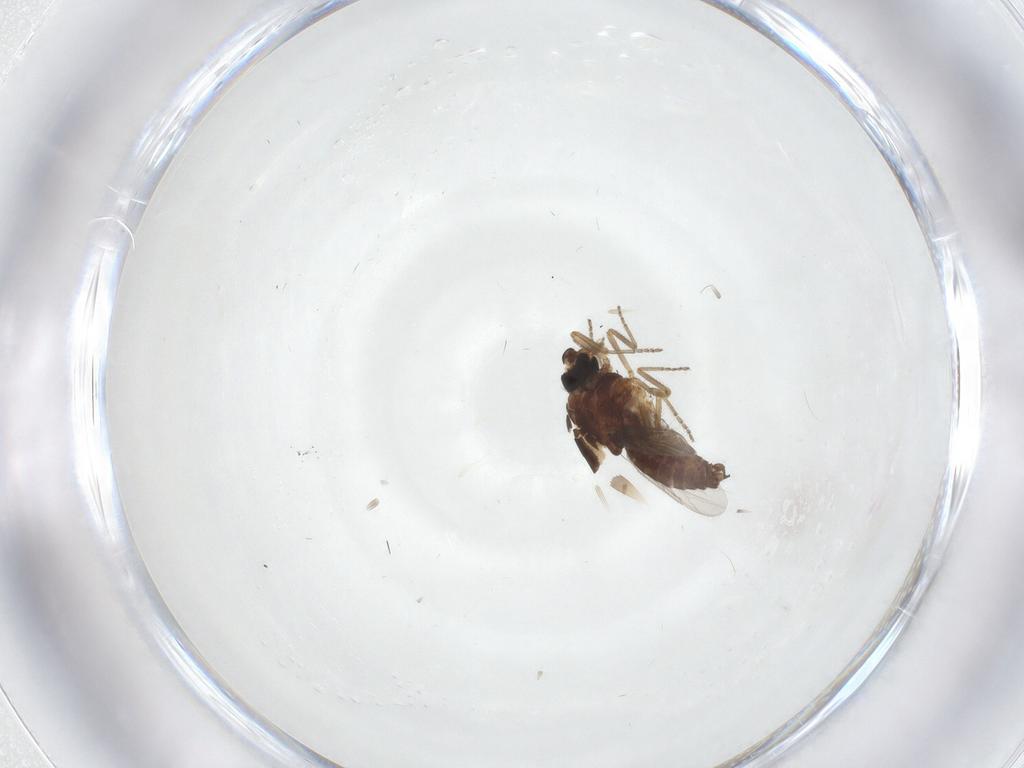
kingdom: Animalia
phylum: Arthropoda
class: Insecta
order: Diptera
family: Ceratopogonidae
